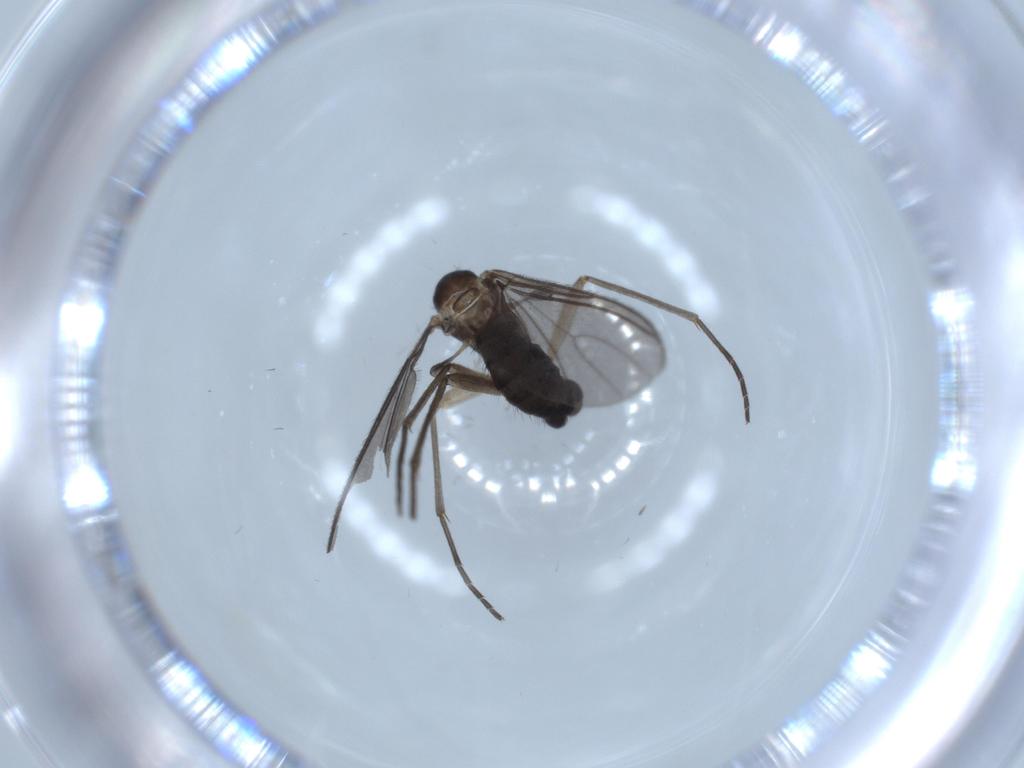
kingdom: Animalia
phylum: Arthropoda
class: Insecta
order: Diptera
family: Sciaridae
